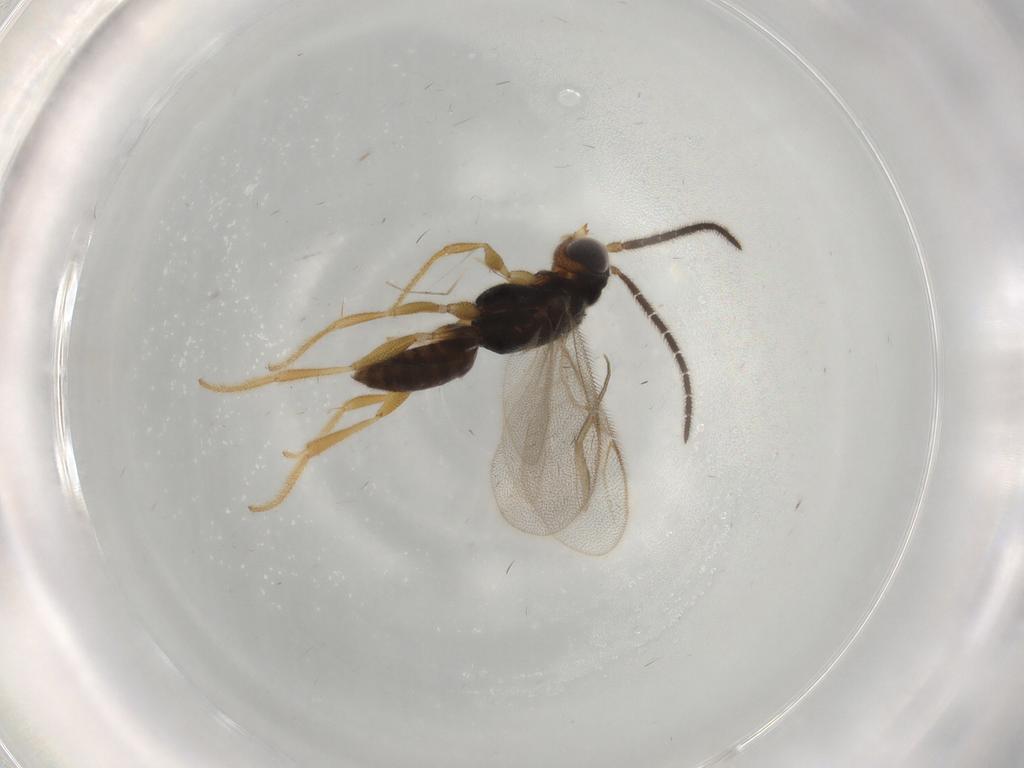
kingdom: Animalia
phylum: Arthropoda
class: Insecta
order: Hymenoptera
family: Dryinidae
